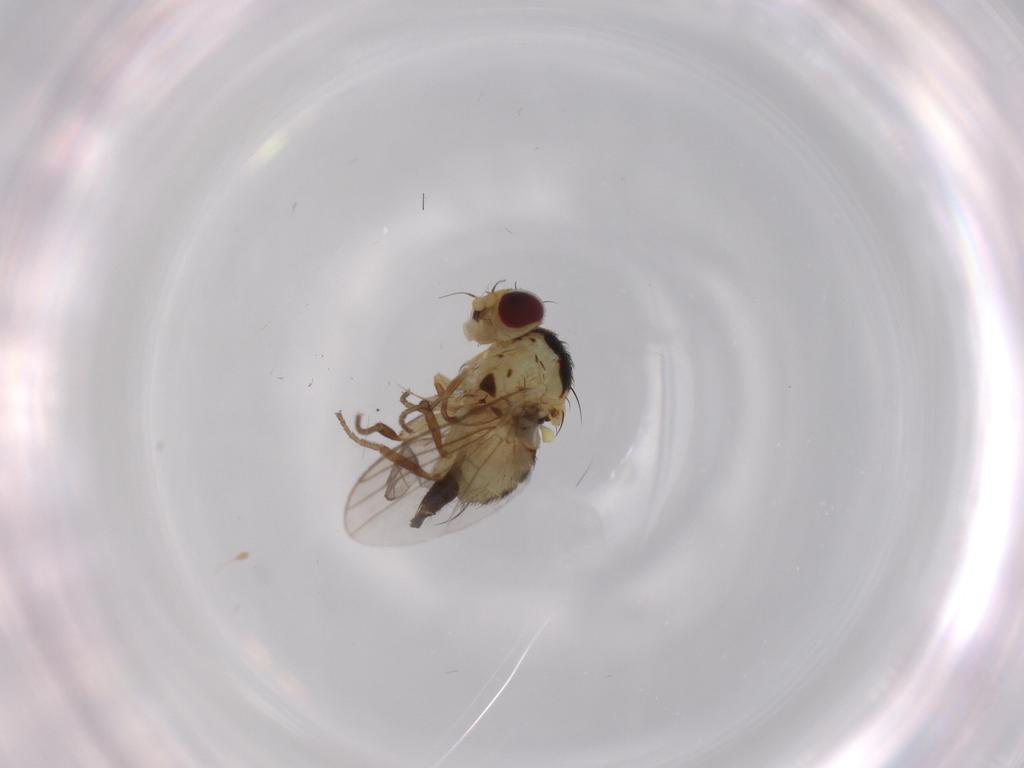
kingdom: Animalia
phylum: Arthropoda
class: Insecta
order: Diptera
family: Agromyzidae
